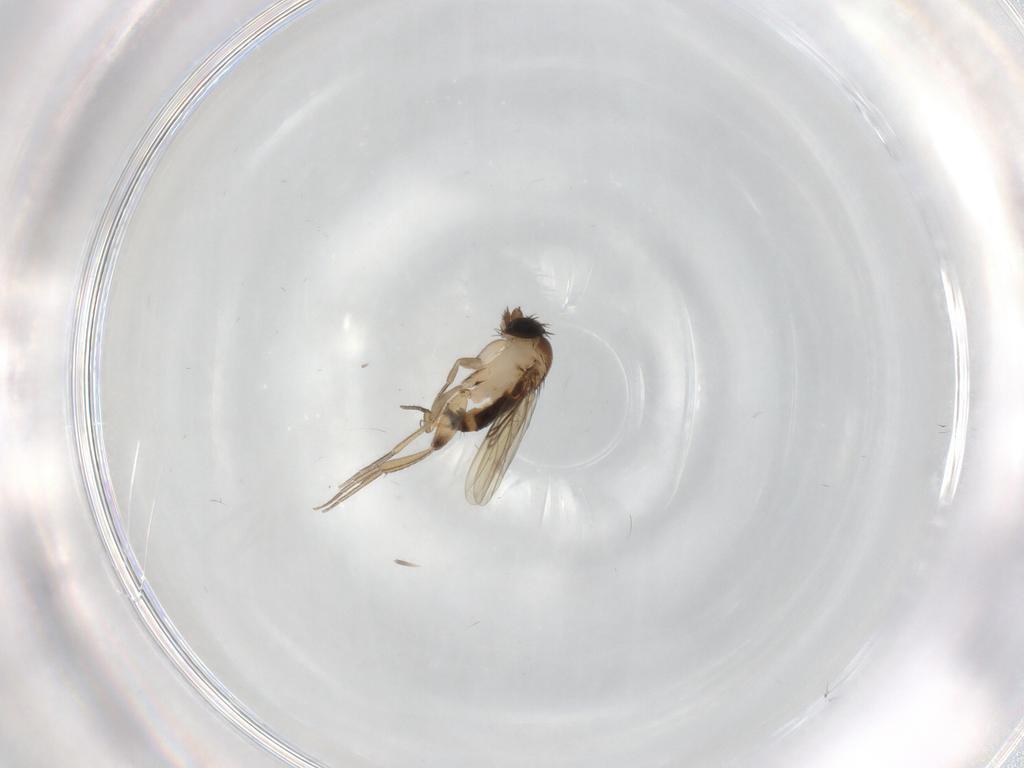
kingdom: Animalia
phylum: Arthropoda
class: Insecta
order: Diptera
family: Phoridae
